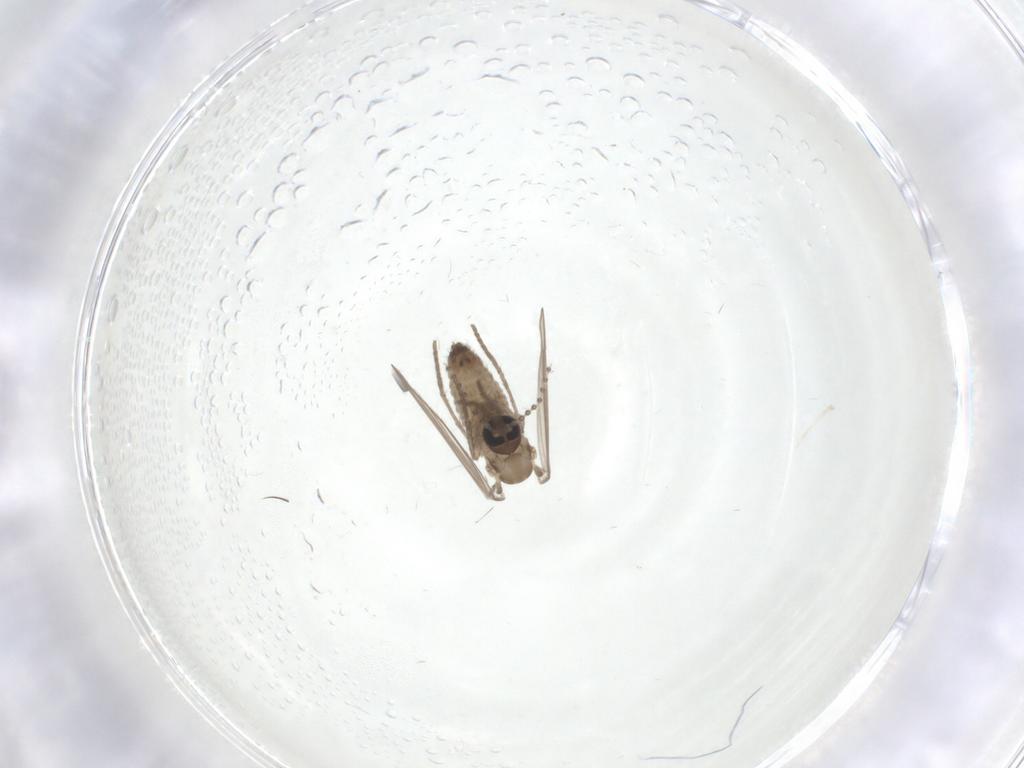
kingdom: Animalia
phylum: Arthropoda
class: Insecta
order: Diptera
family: Psychodidae
